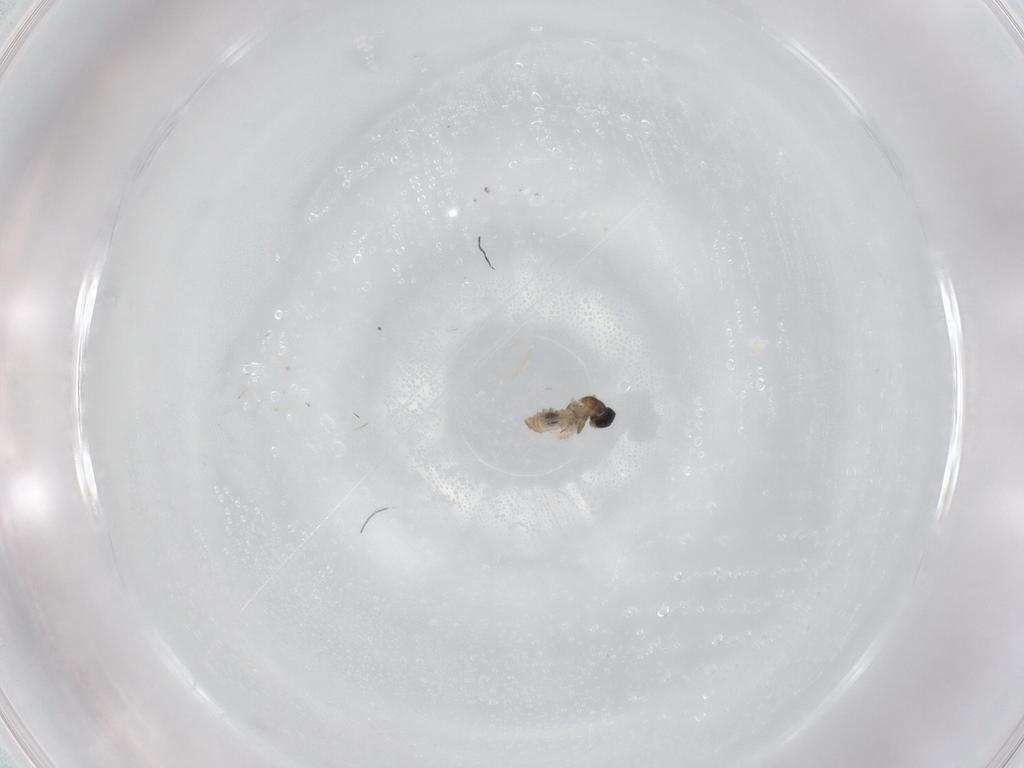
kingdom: Animalia
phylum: Arthropoda
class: Insecta
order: Diptera
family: Cecidomyiidae
